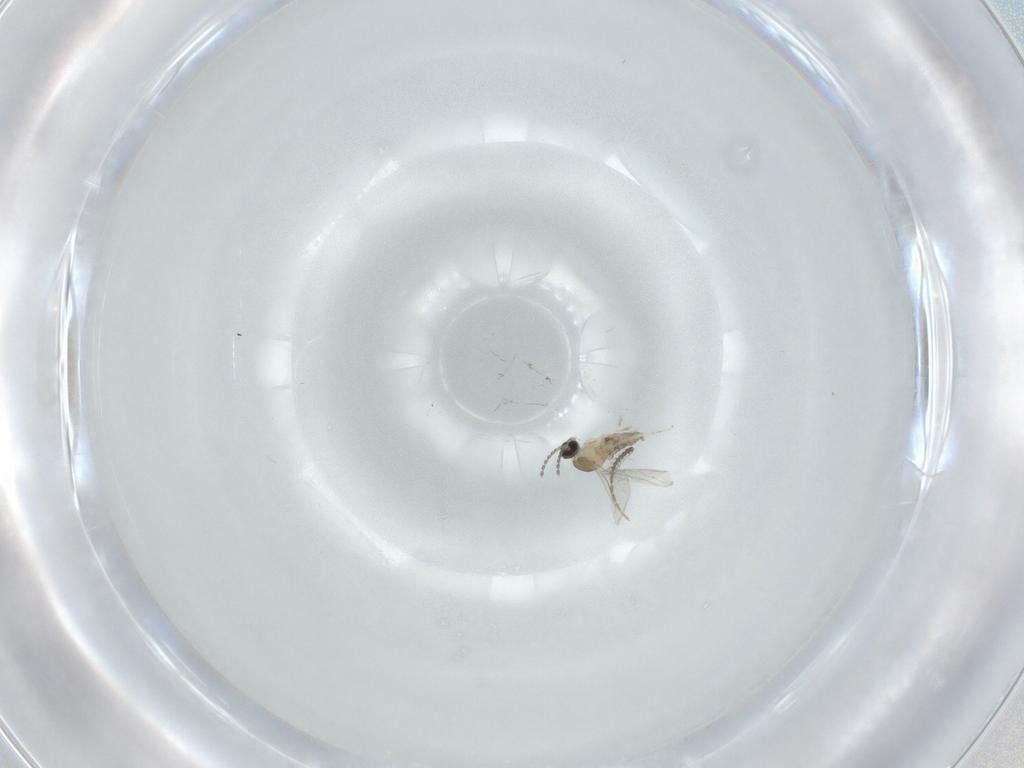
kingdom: Animalia
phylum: Arthropoda
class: Insecta
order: Diptera
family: Cecidomyiidae
